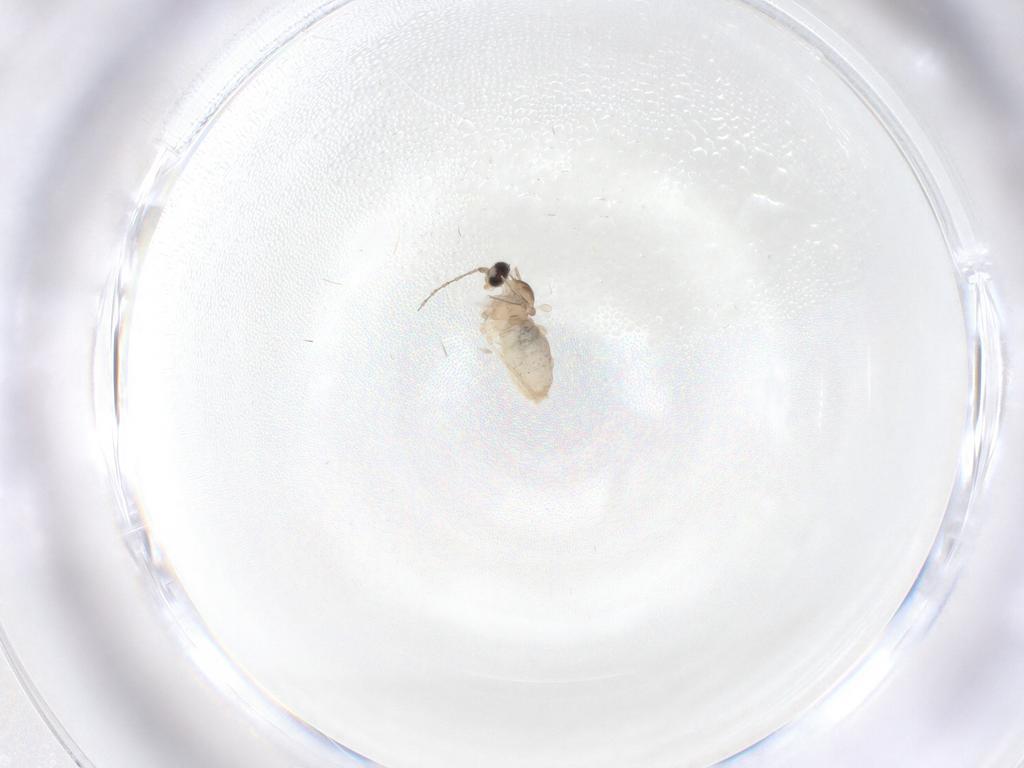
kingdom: Animalia
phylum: Arthropoda
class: Insecta
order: Diptera
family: Cecidomyiidae
